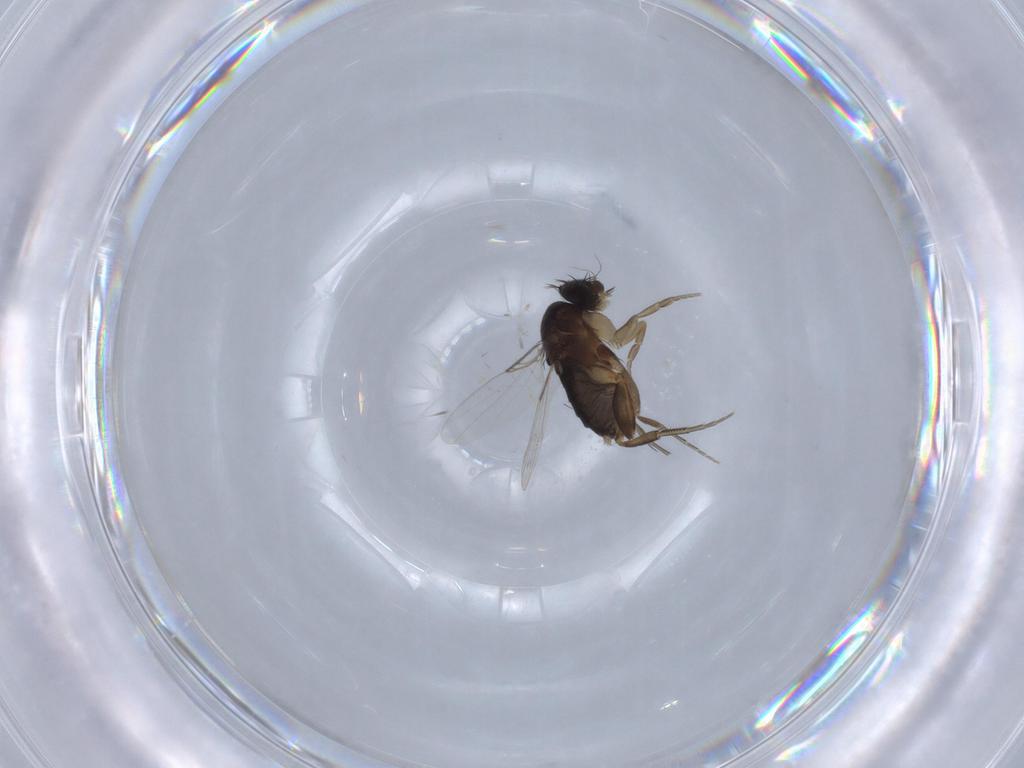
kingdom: Animalia
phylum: Arthropoda
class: Insecta
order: Diptera
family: Phoridae
